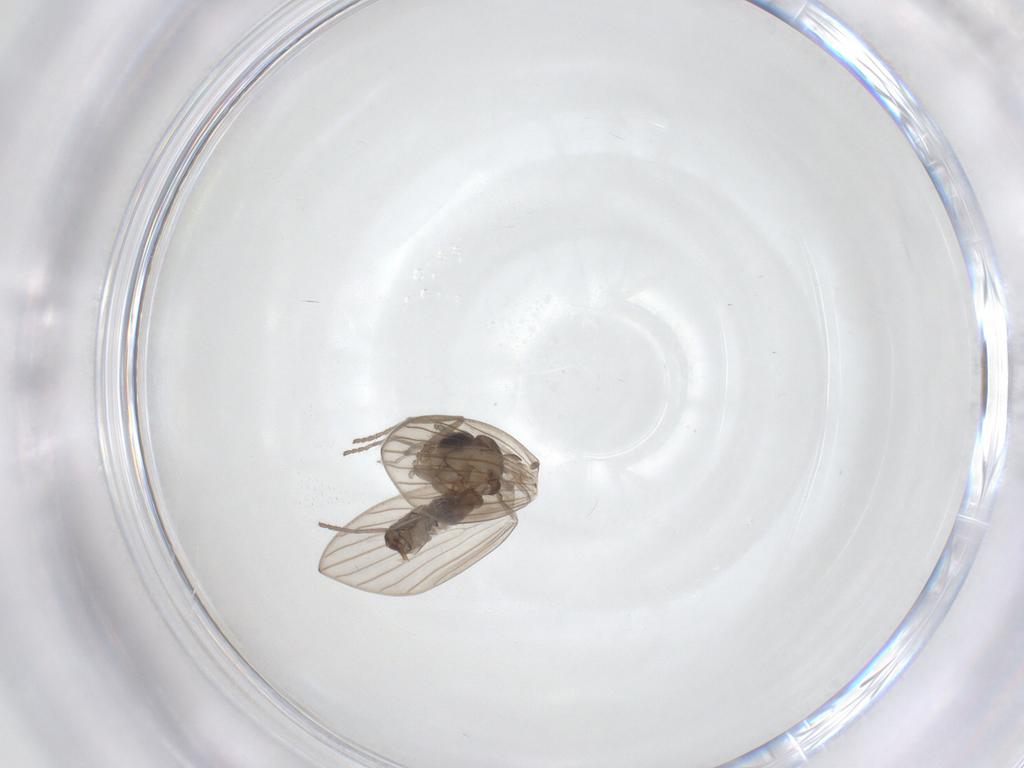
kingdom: Animalia
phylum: Arthropoda
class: Insecta
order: Diptera
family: Psychodidae
